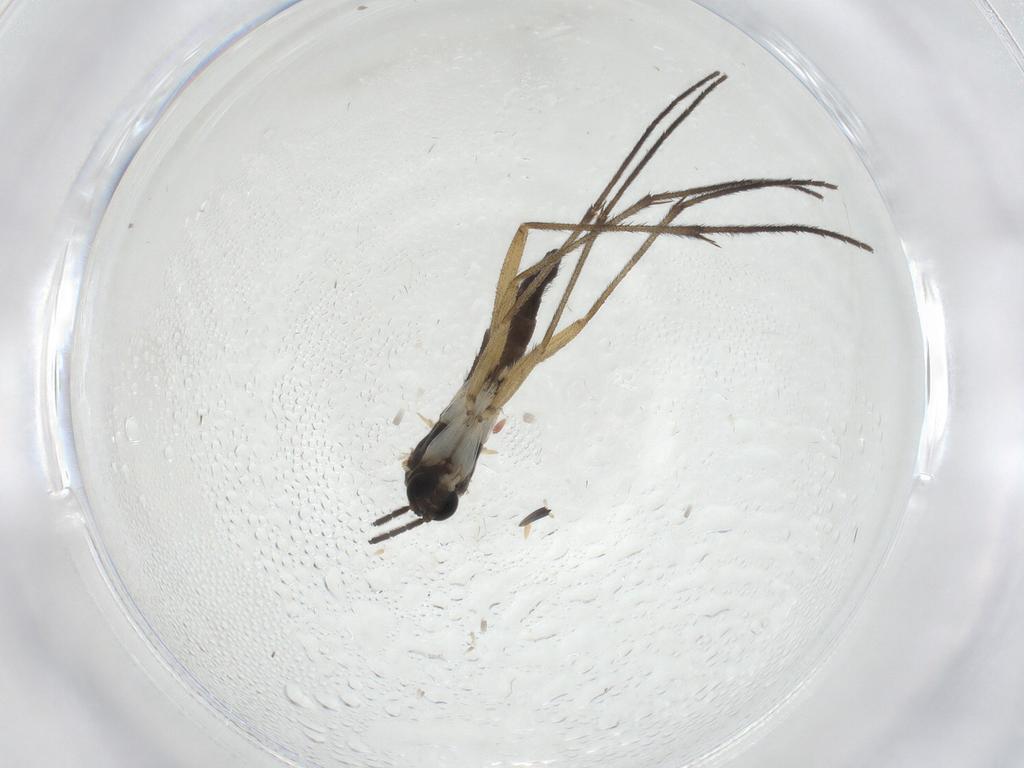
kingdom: Animalia
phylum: Arthropoda
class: Insecta
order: Diptera
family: Sciaridae
